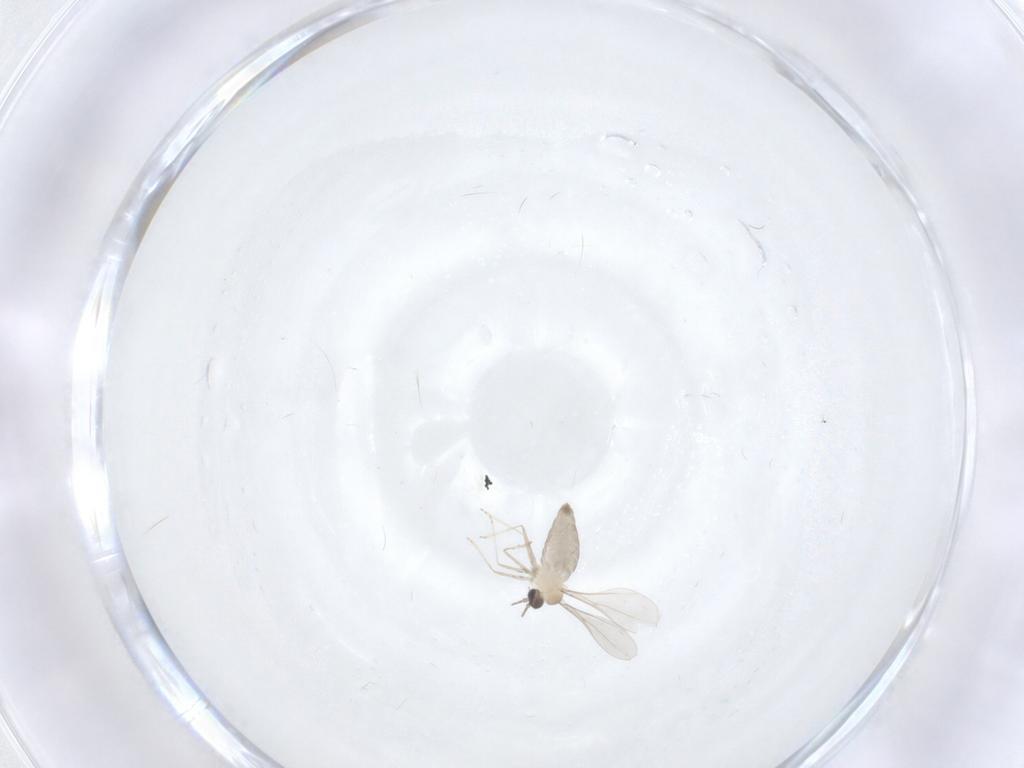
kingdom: Animalia
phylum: Arthropoda
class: Insecta
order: Diptera
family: Cecidomyiidae
